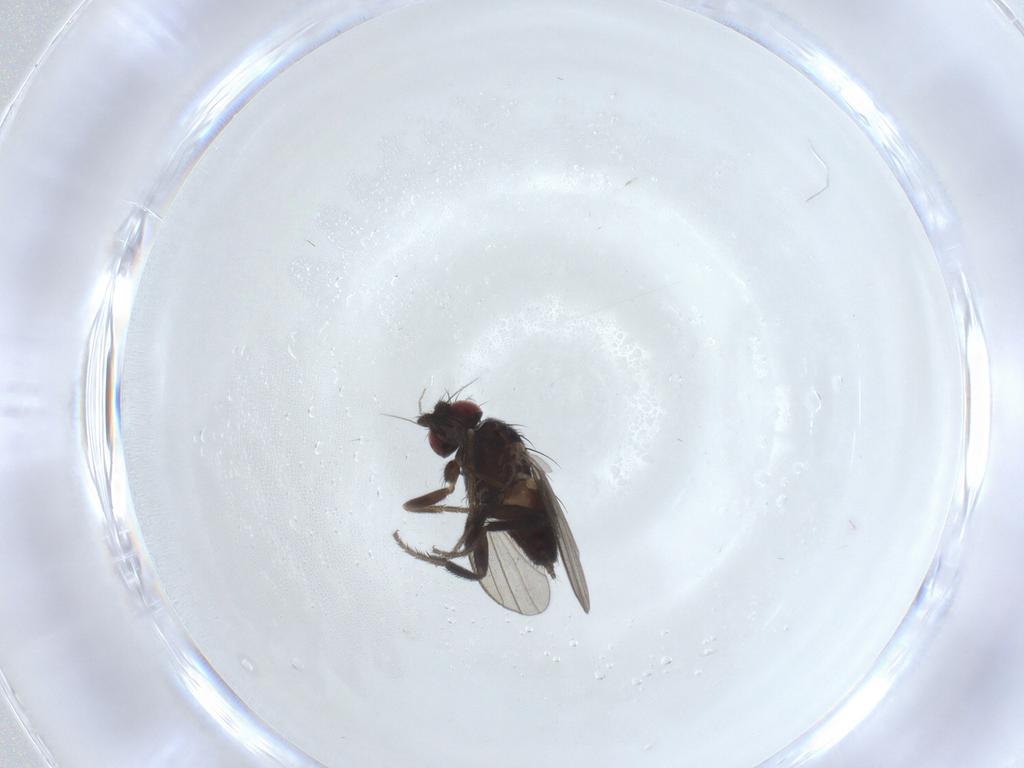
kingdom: Animalia
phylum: Arthropoda
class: Insecta
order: Diptera
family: Milichiidae
